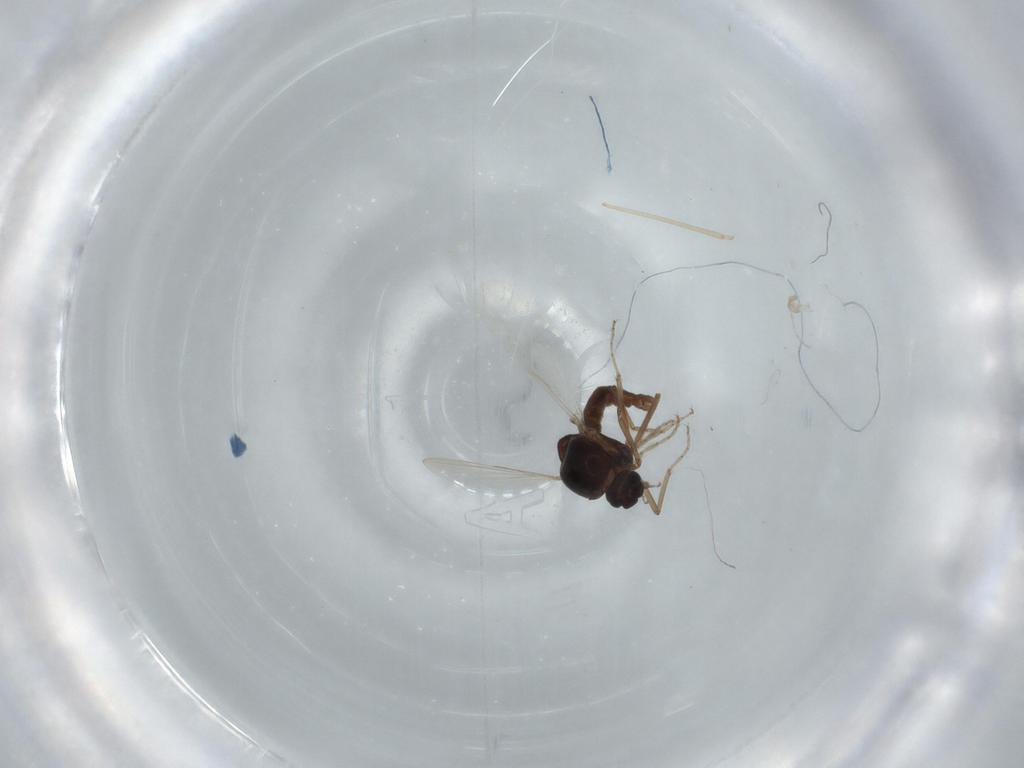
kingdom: Animalia
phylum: Arthropoda
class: Insecta
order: Diptera
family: Ceratopogonidae
